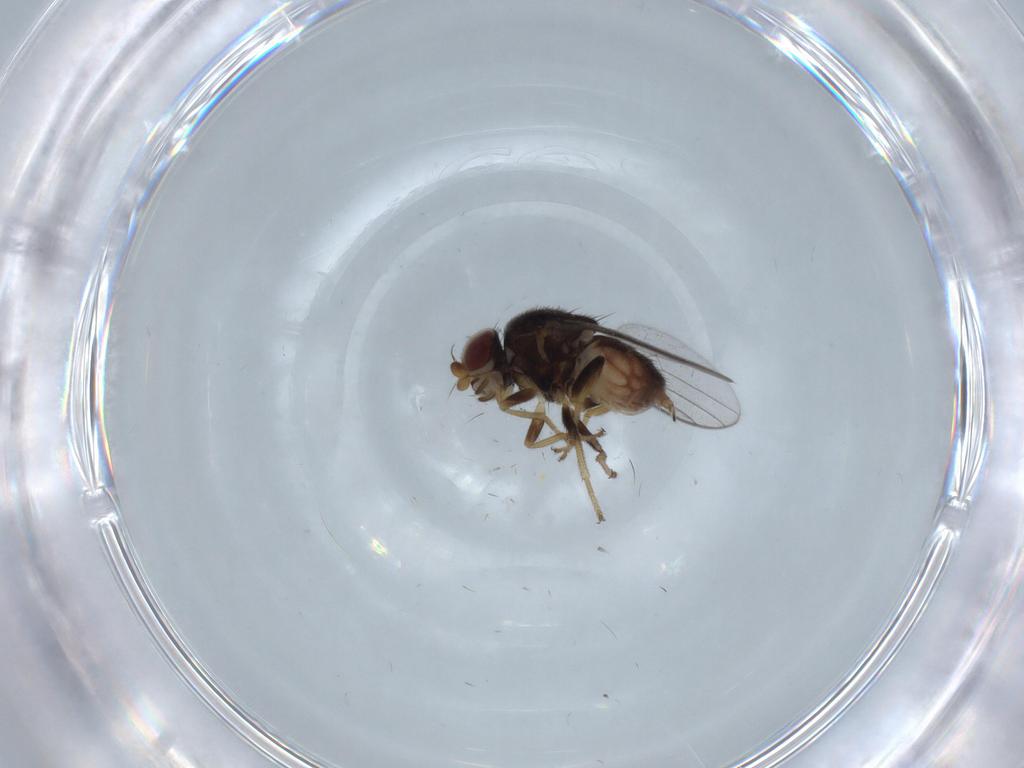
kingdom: Animalia
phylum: Arthropoda
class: Insecta
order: Diptera
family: Chloropidae
